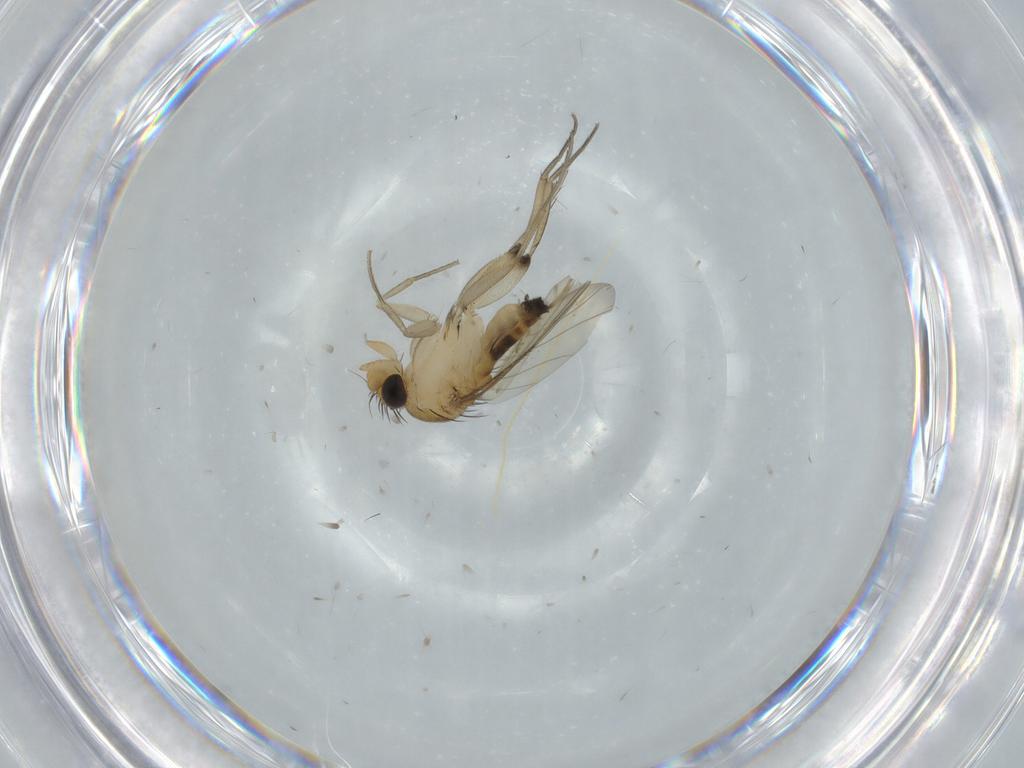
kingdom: Animalia
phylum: Arthropoda
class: Insecta
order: Diptera
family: Phoridae
